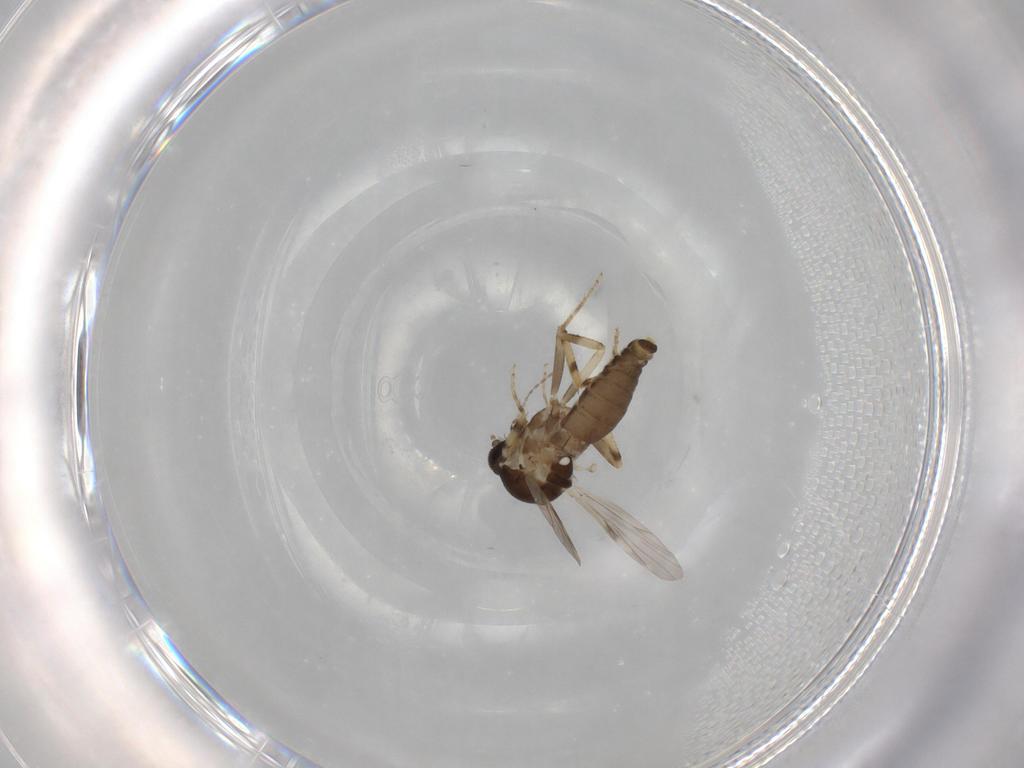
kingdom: Animalia
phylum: Arthropoda
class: Insecta
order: Diptera
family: Ceratopogonidae
